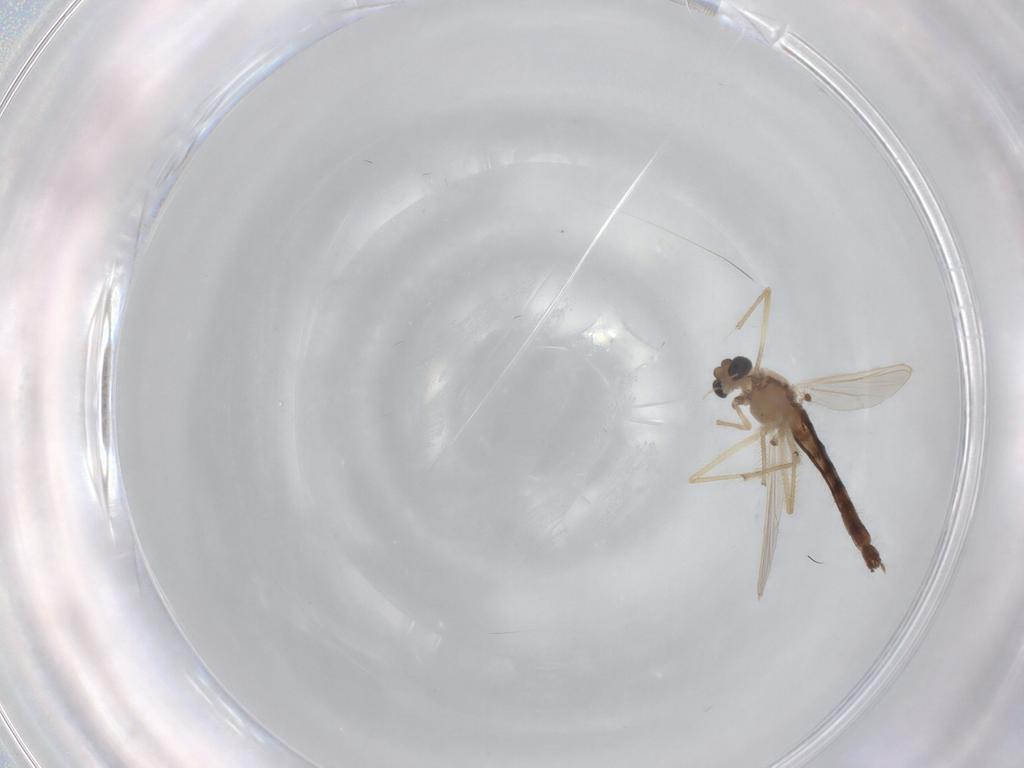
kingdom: Animalia
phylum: Arthropoda
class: Insecta
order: Diptera
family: Chironomidae
